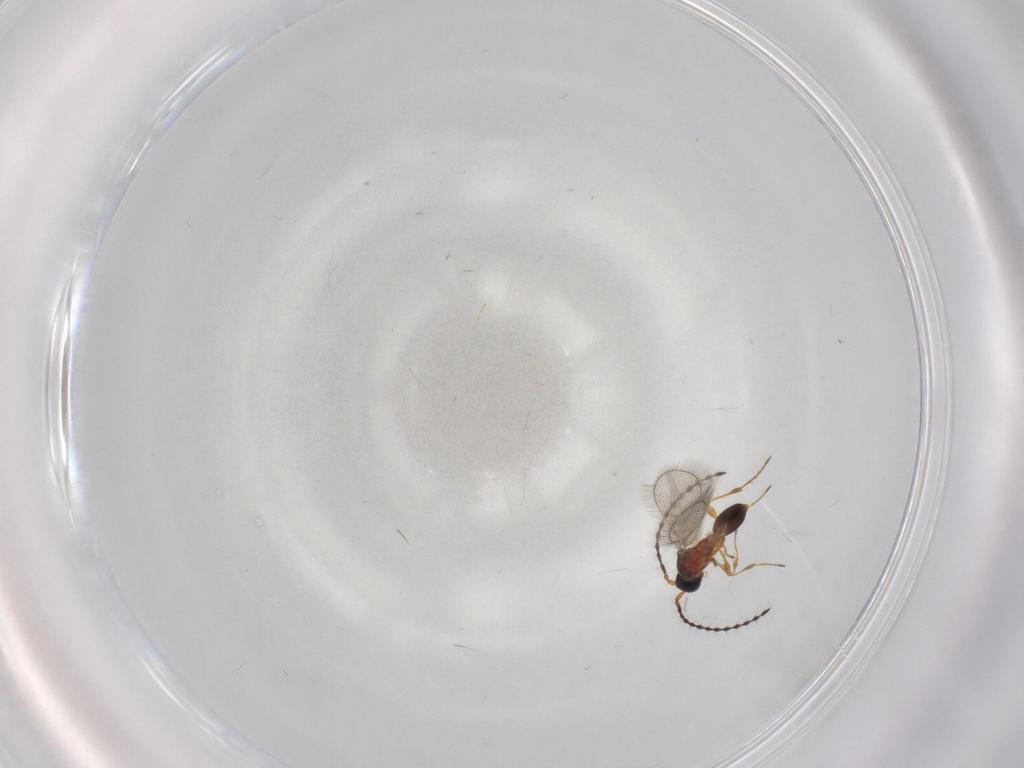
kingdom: Animalia
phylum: Arthropoda
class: Insecta
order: Hymenoptera
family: Diapriidae
